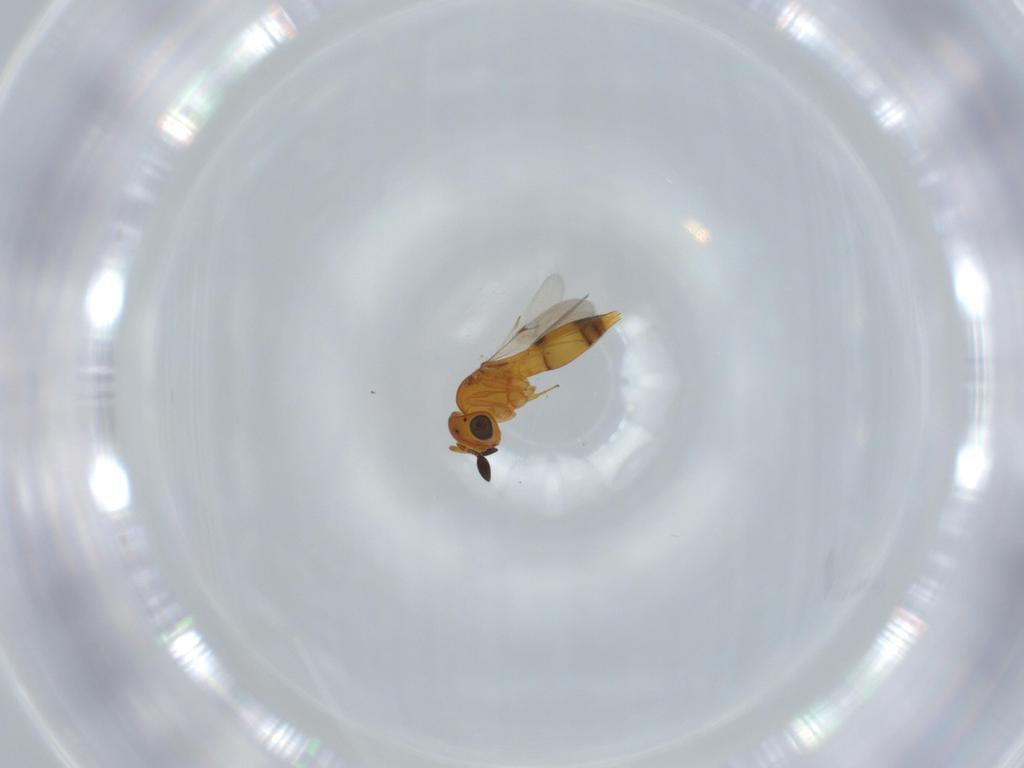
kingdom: Animalia
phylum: Arthropoda
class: Insecta
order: Hymenoptera
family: Scelionidae
